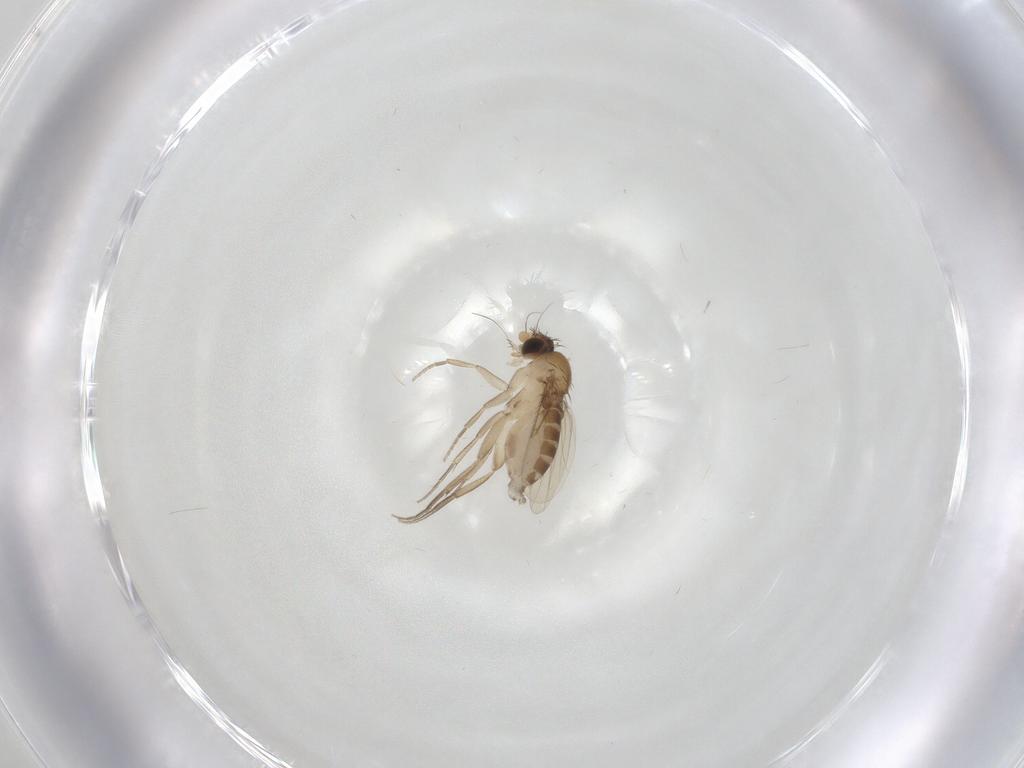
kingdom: Animalia
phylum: Arthropoda
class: Insecta
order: Diptera
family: Phoridae
